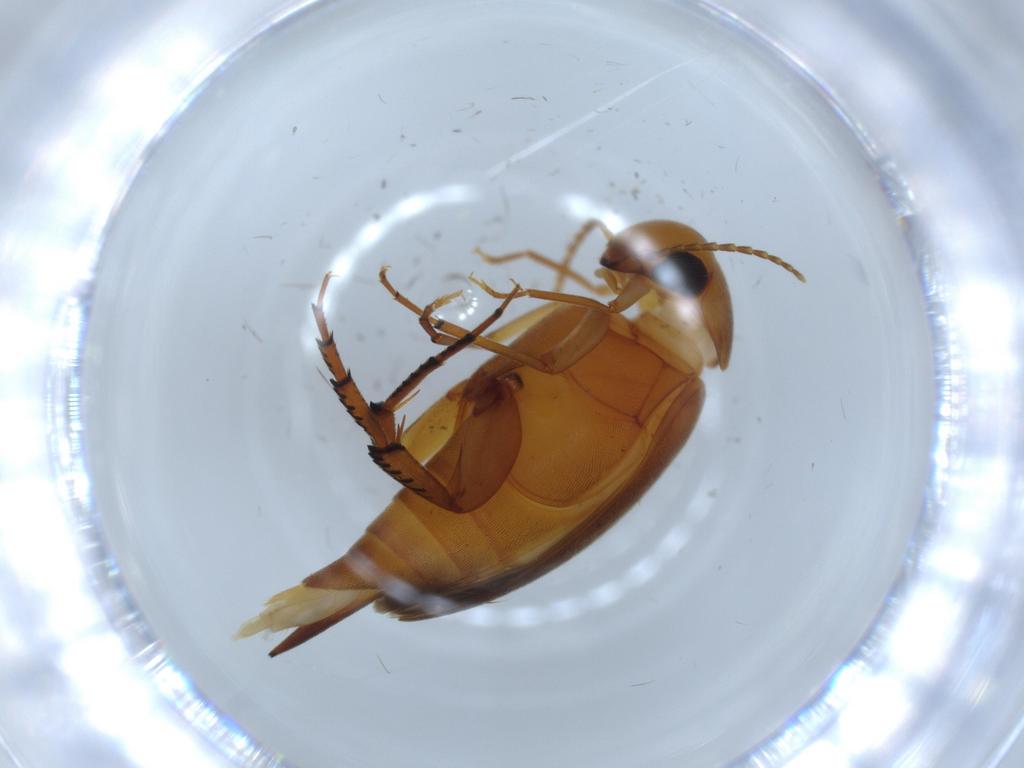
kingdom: Animalia
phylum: Arthropoda
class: Insecta
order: Coleoptera
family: Mordellidae
